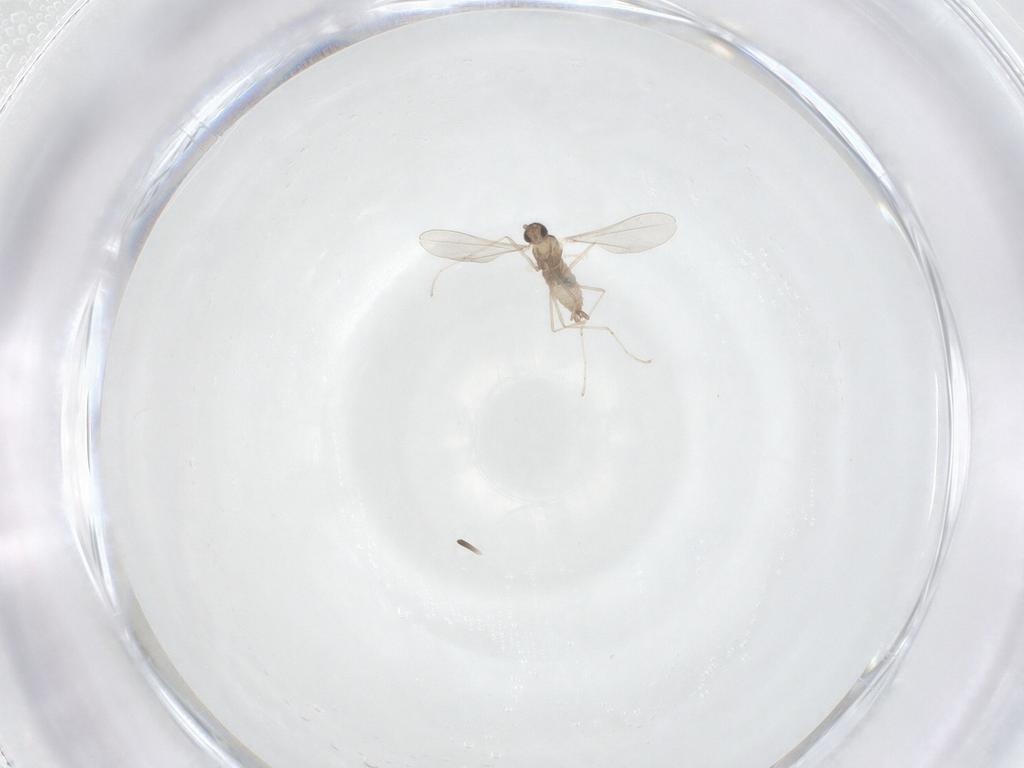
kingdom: Animalia
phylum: Arthropoda
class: Insecta
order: Diptera
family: Cecidomyiidae
